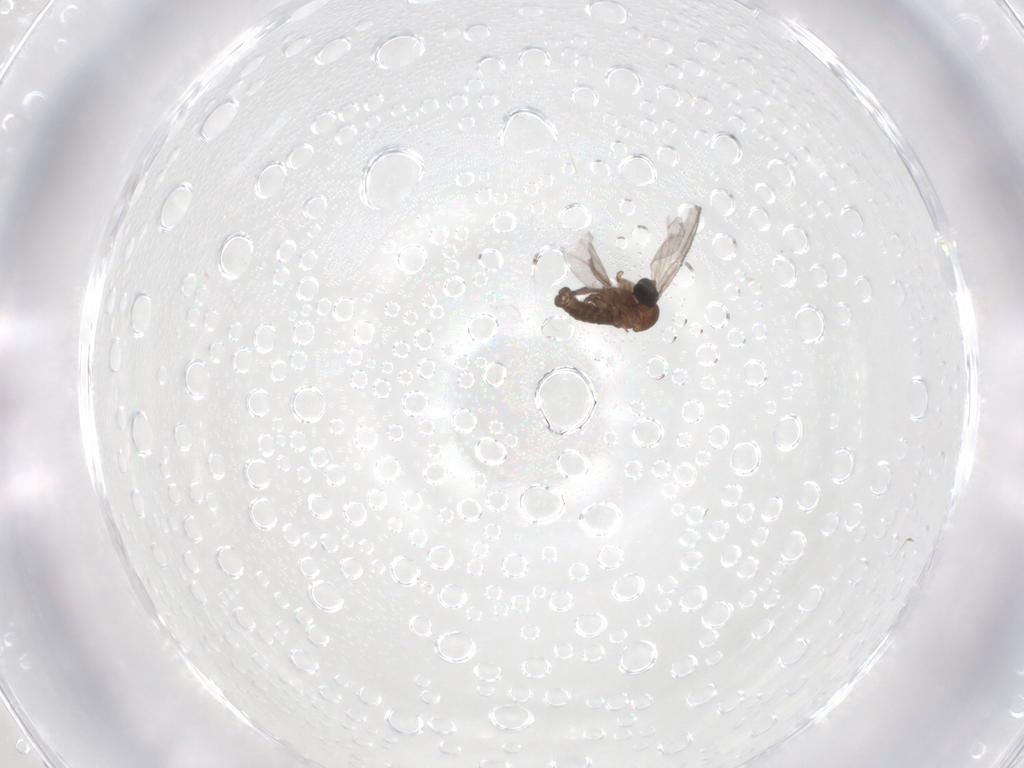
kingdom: Animalia
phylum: Arthropoda
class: Insecta
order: Diptera
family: Sciaridae
